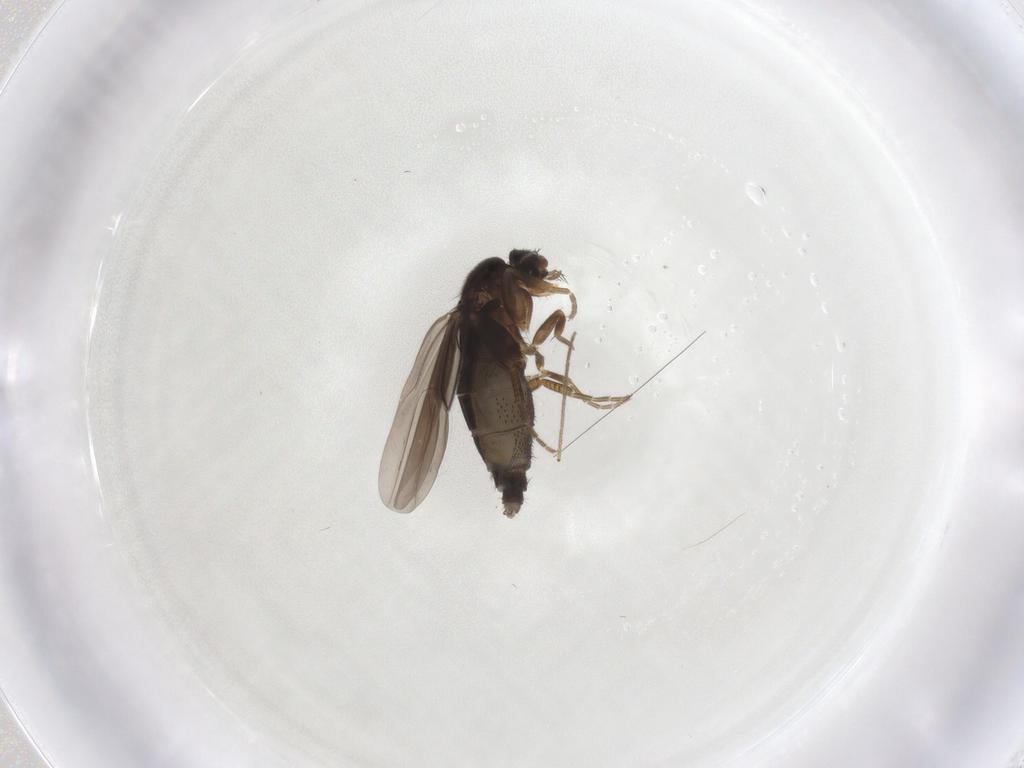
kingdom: Animalia
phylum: Arthropoda
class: Insecta
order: Diptera
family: Phoridae
